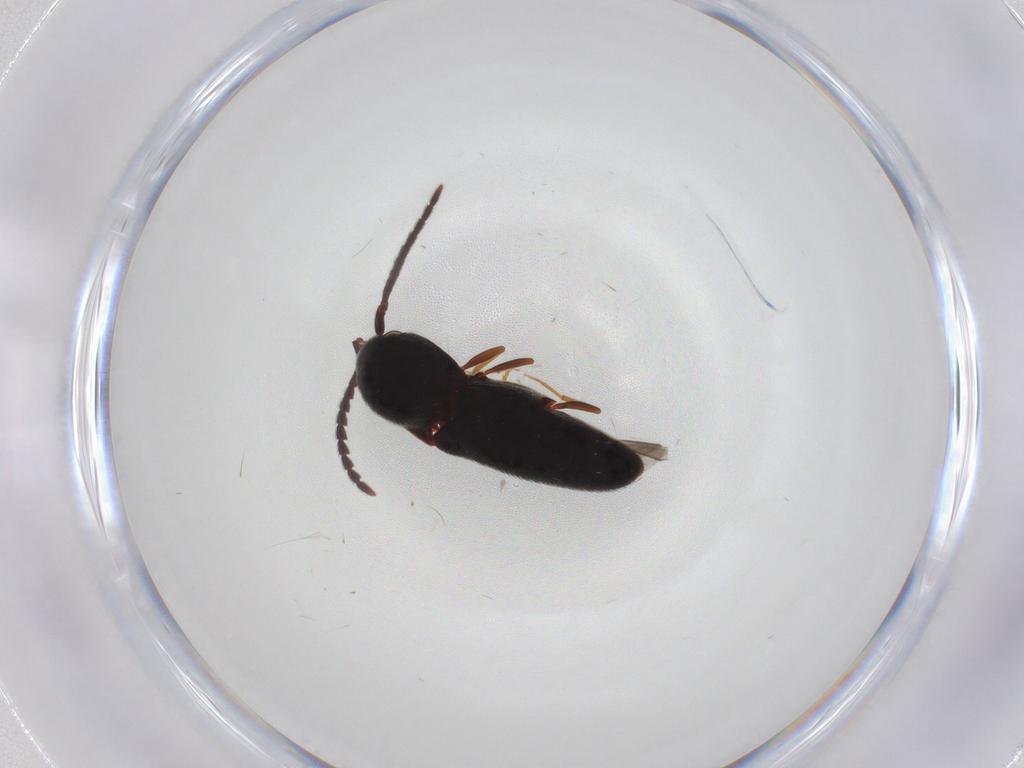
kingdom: Animalia
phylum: Arthropoda
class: Insecta
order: Coleoptera
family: Eucnemidae
